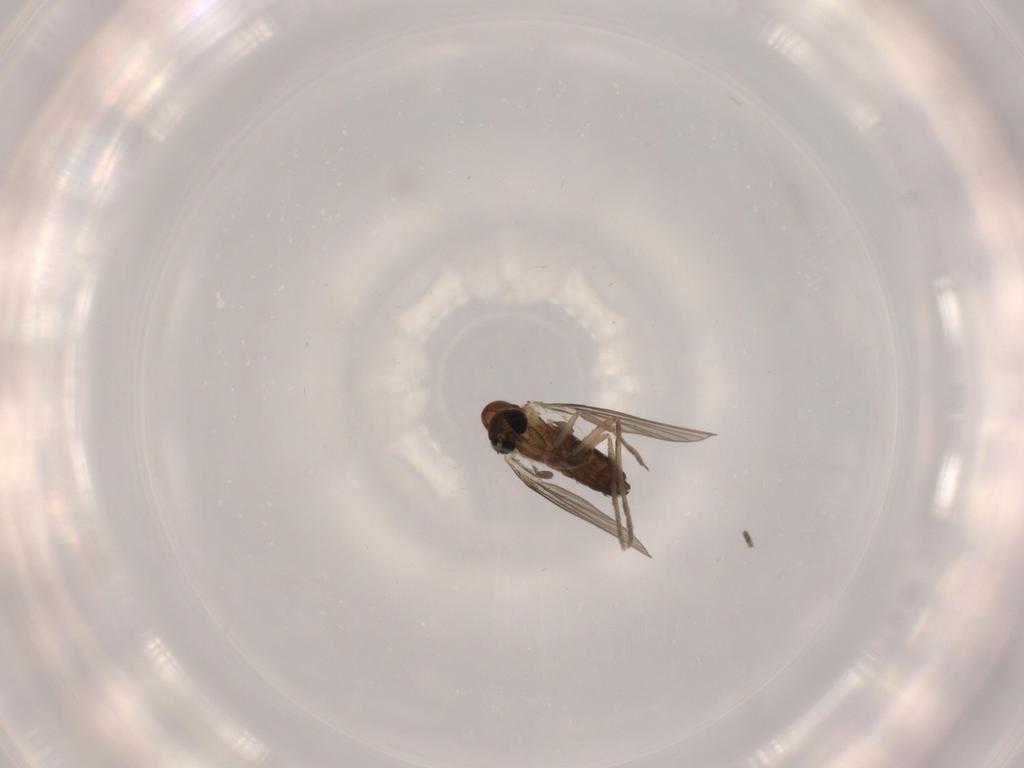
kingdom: Animalia
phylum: Arthropoda
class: Insecta
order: Diptera
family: Psychodidae
